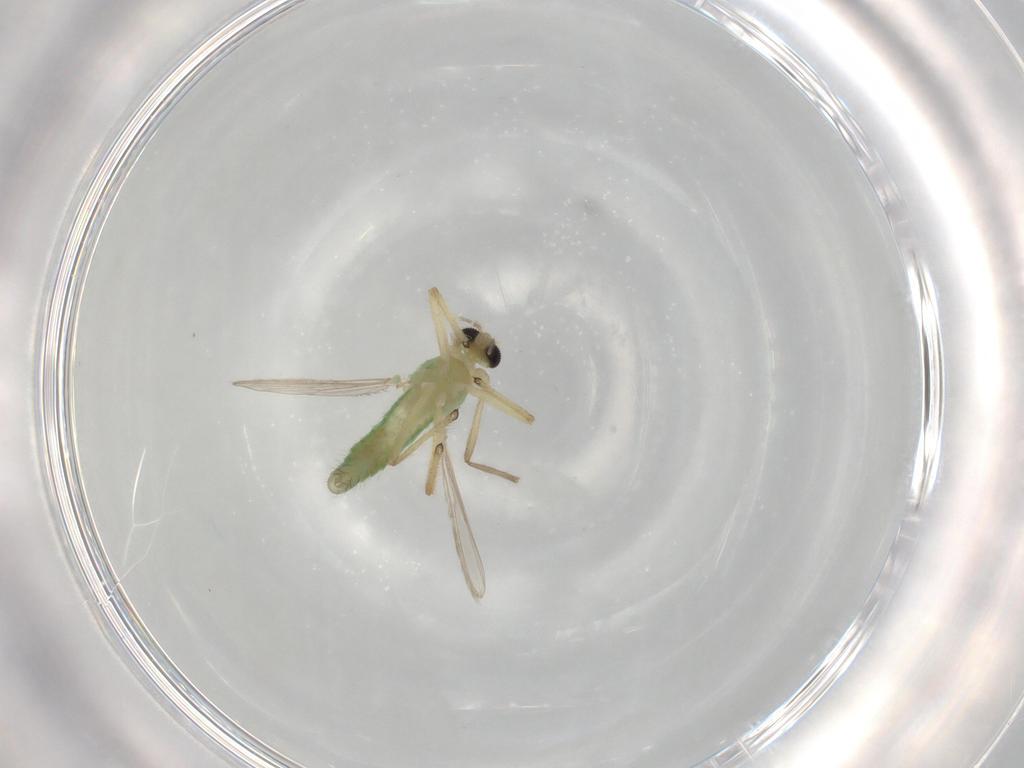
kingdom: Animalia
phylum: Arthropoda
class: Insecta
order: Diptera
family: Chironomidae
